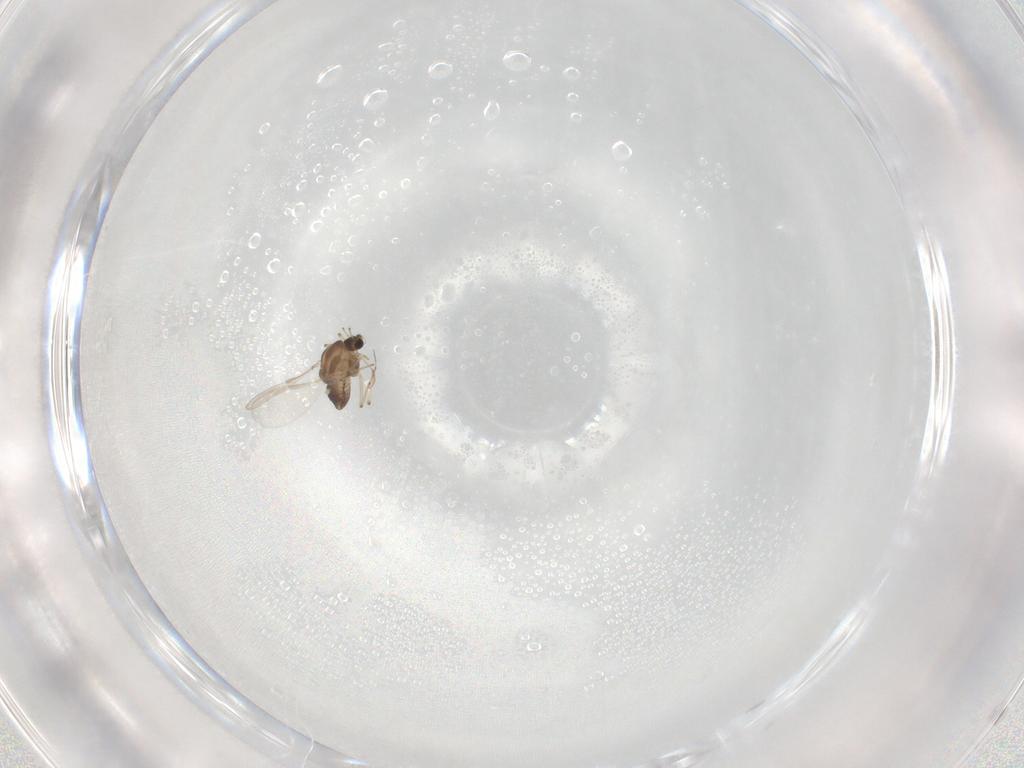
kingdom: Animalia
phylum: Arthropoda
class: Insecta
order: Diptera
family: Chironomidae
